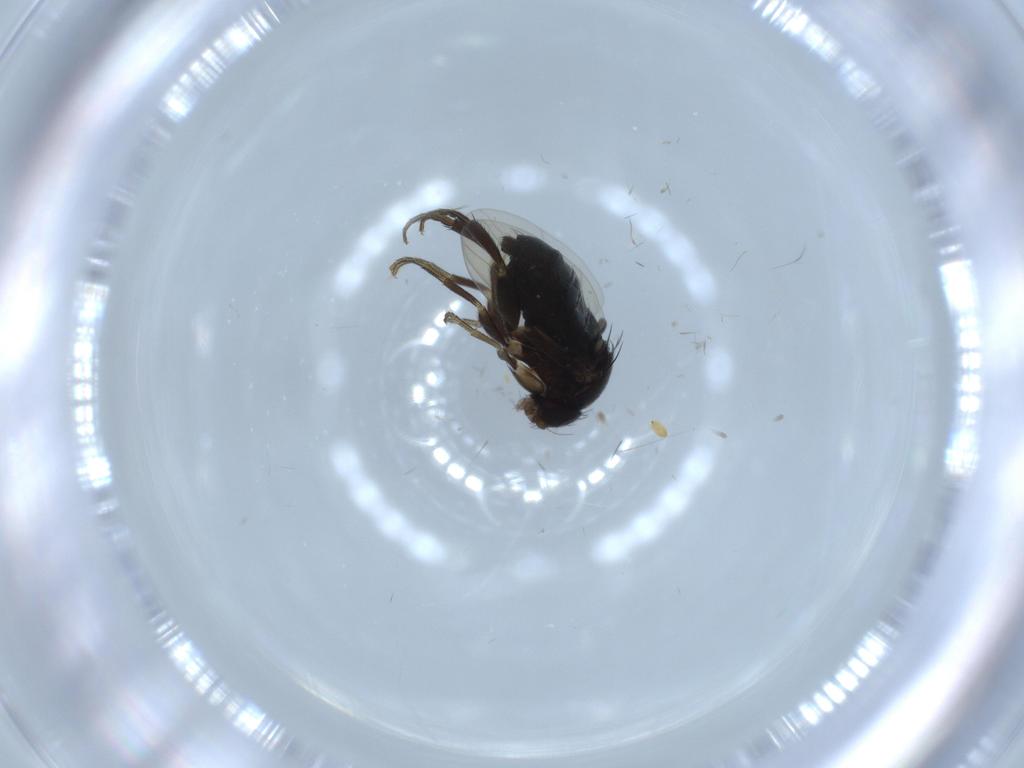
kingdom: Animalia
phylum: Arthropoda
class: Insecta
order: Diptera
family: Phoridae
